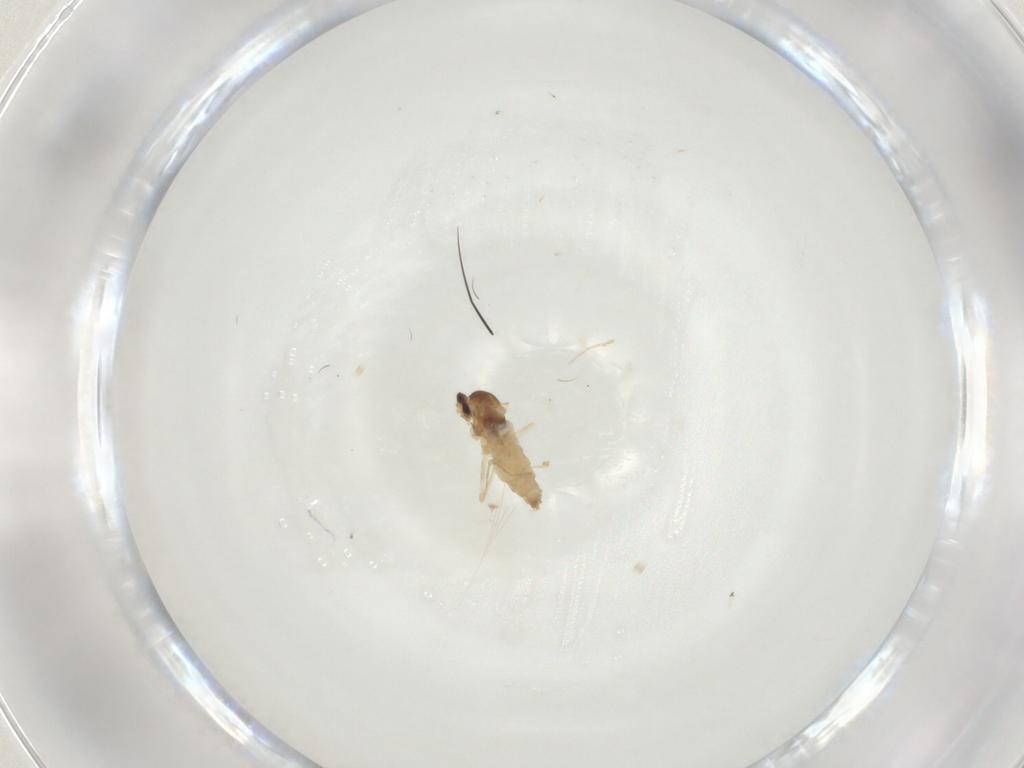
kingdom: Animalia
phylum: Arthropoda
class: Insecta
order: Diptera
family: Cecidomyiidae
